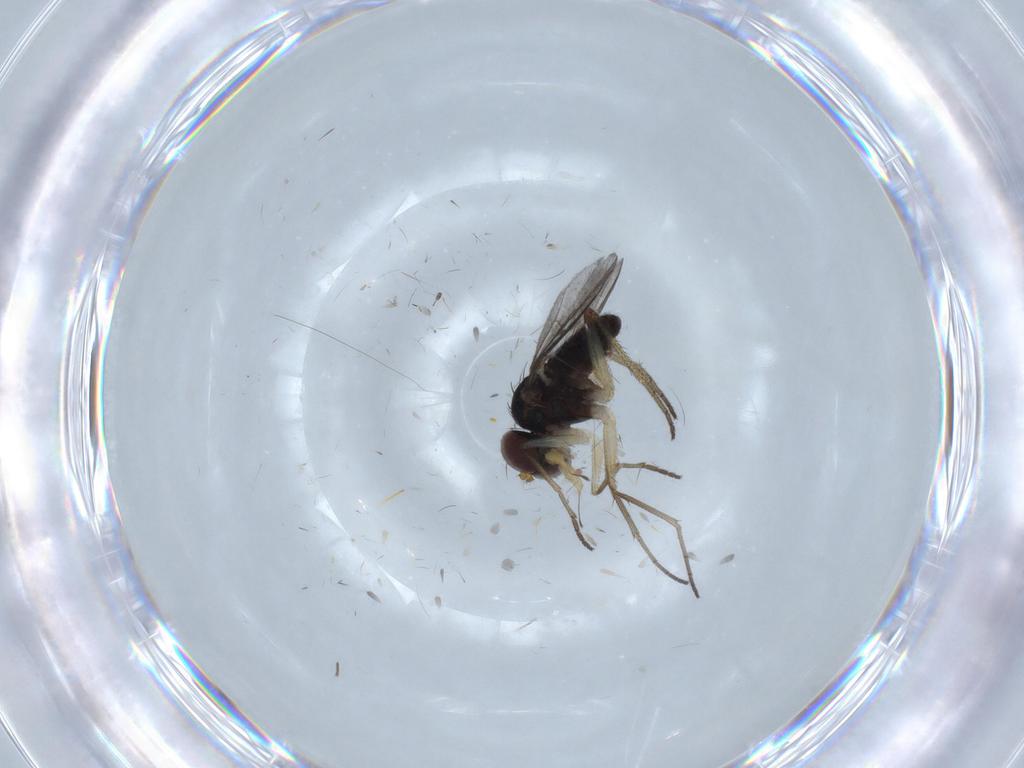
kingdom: Animalia
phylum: Arthropoda
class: Insecta
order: Diptera
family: Dolichopodidae
